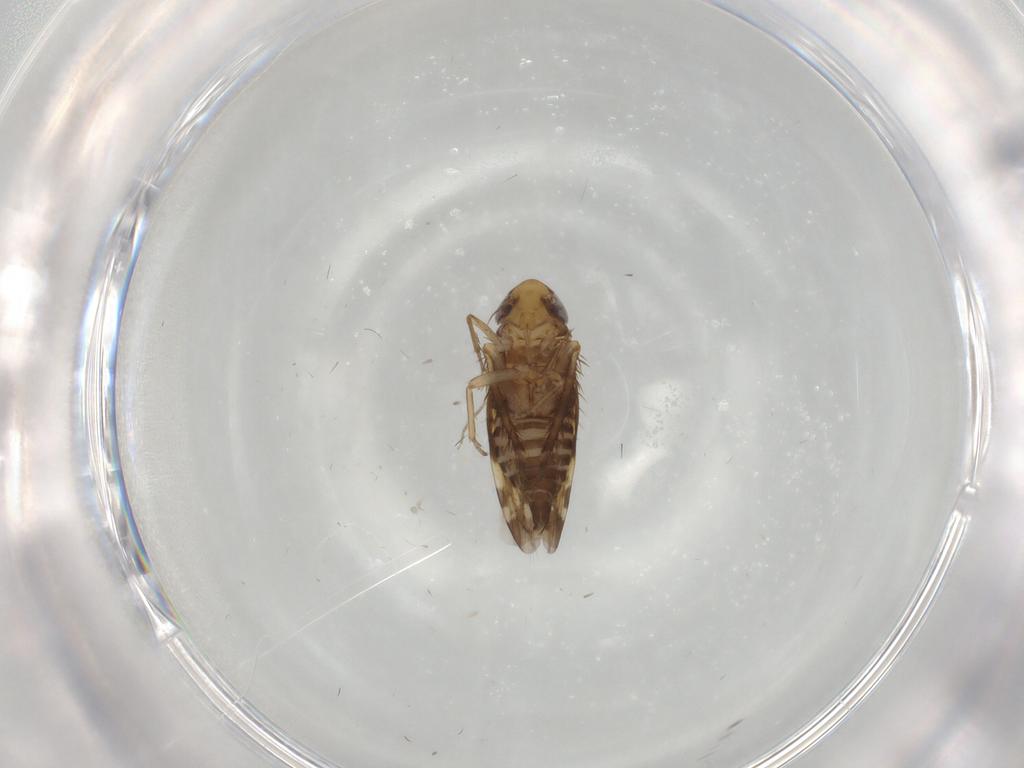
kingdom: Animalia
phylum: Arthropoda
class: Insecta
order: Hemiptera
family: Cicadellidae
